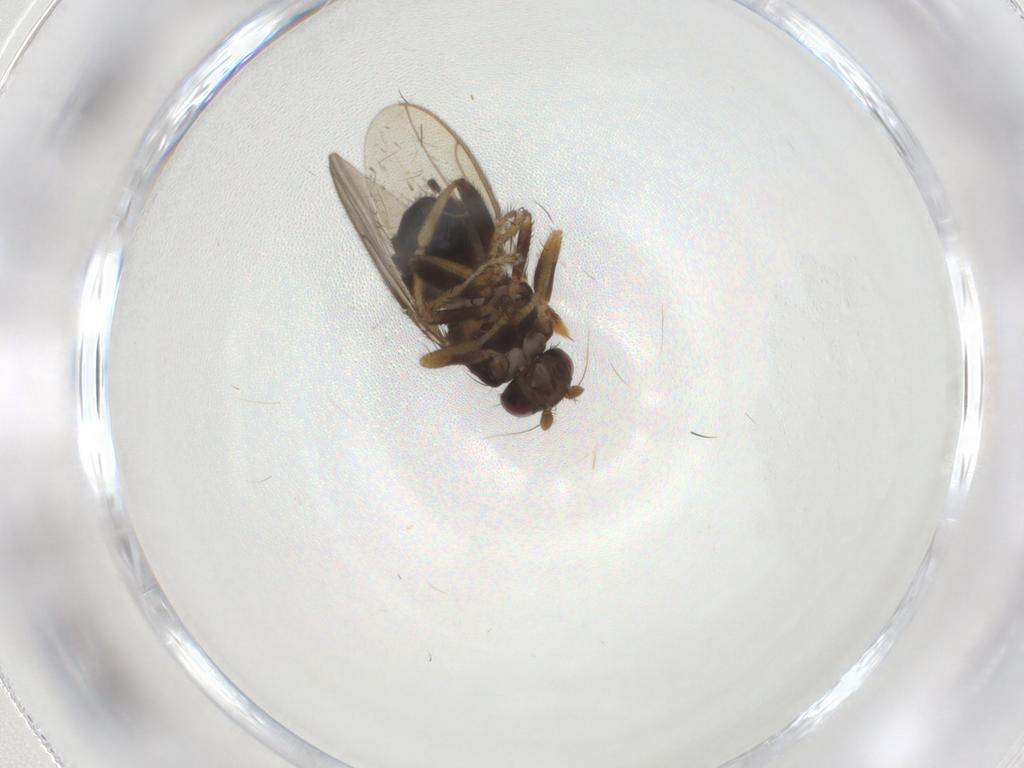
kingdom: Animalia
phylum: Arthropoda
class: Insecta
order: Diptera
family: Sphaeroceridae
